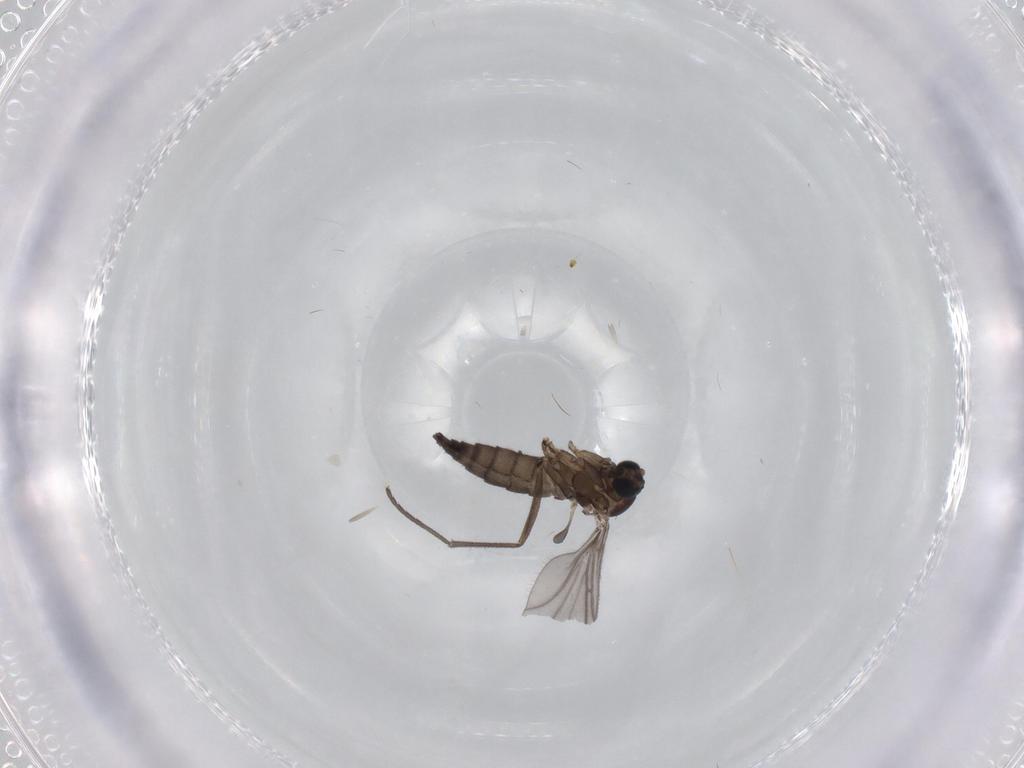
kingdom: Animalia
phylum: Arthropoda
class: Insecta
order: Diptera
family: Sciaridae
